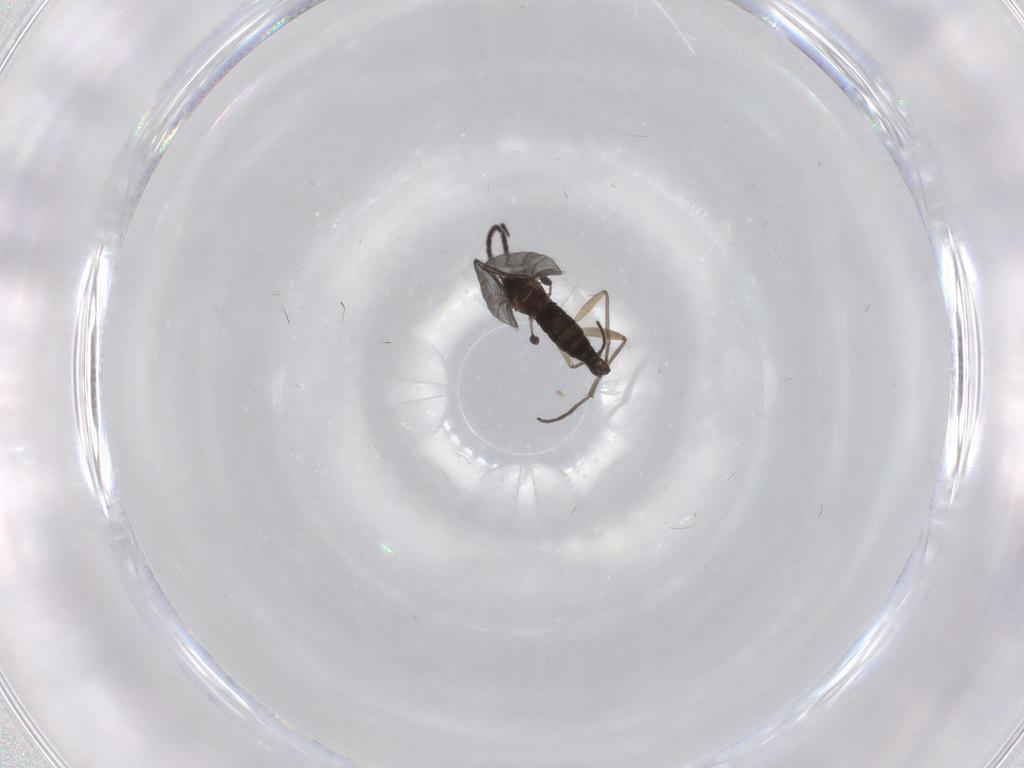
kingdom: Animalia
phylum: Arthropoda
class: Insecta
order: Diptera
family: Sciaridae
